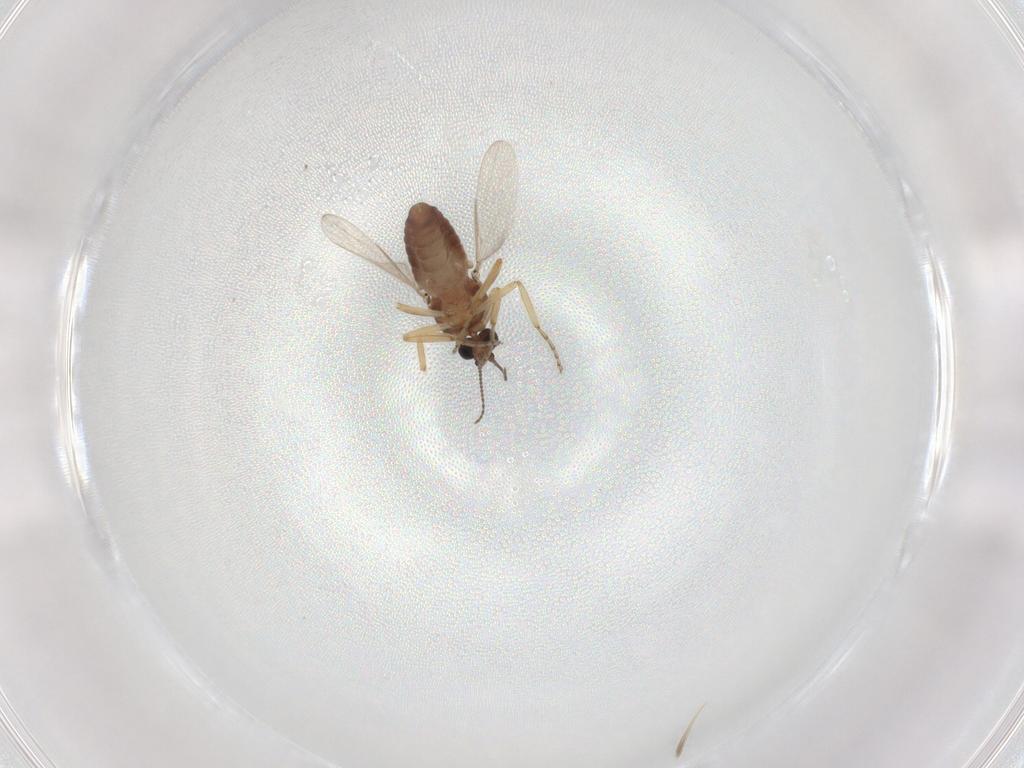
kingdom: Animalia
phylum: Arthropoda
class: Insecta
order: Diptera
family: Ceratopogonidae
